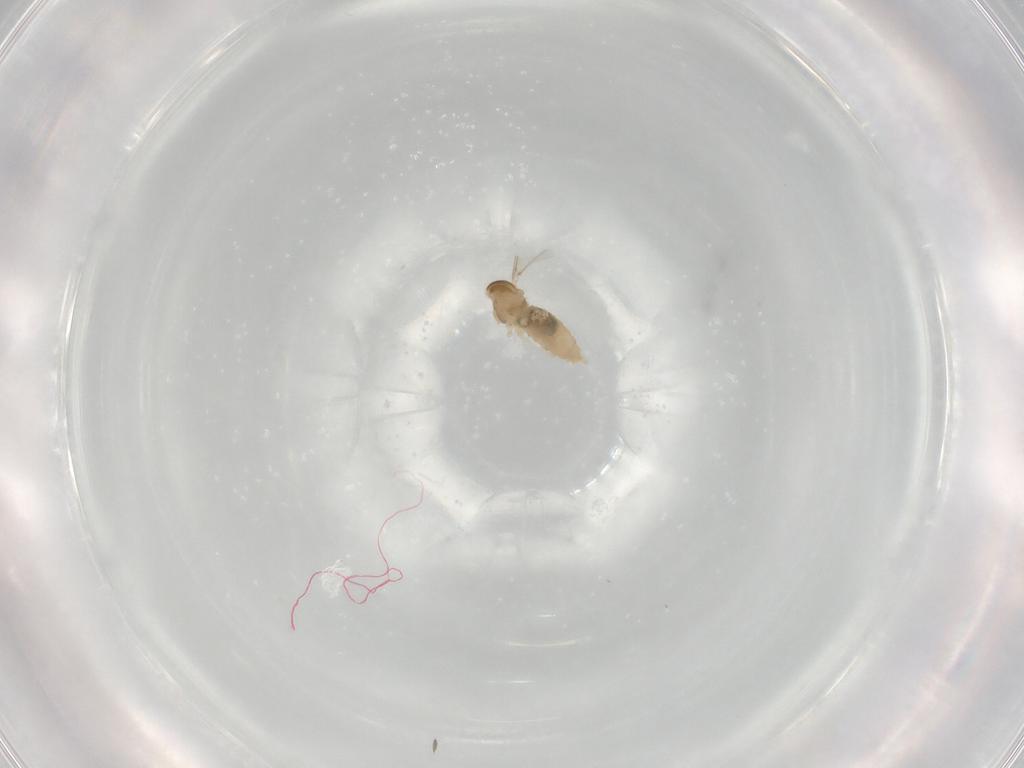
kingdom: Animalia
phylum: Arthropoda
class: Insecta
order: Diptera
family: Cecidomyiidae
